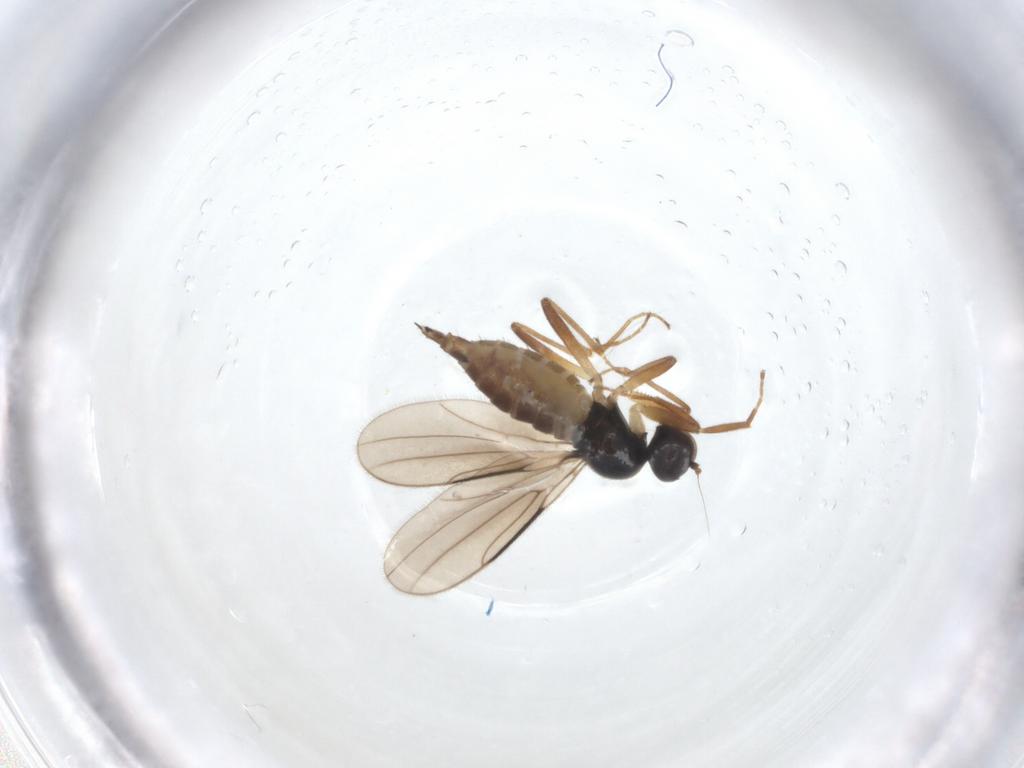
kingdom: Animalia
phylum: Arthropoda
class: Insecta
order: Diptera
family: Hybotidae
